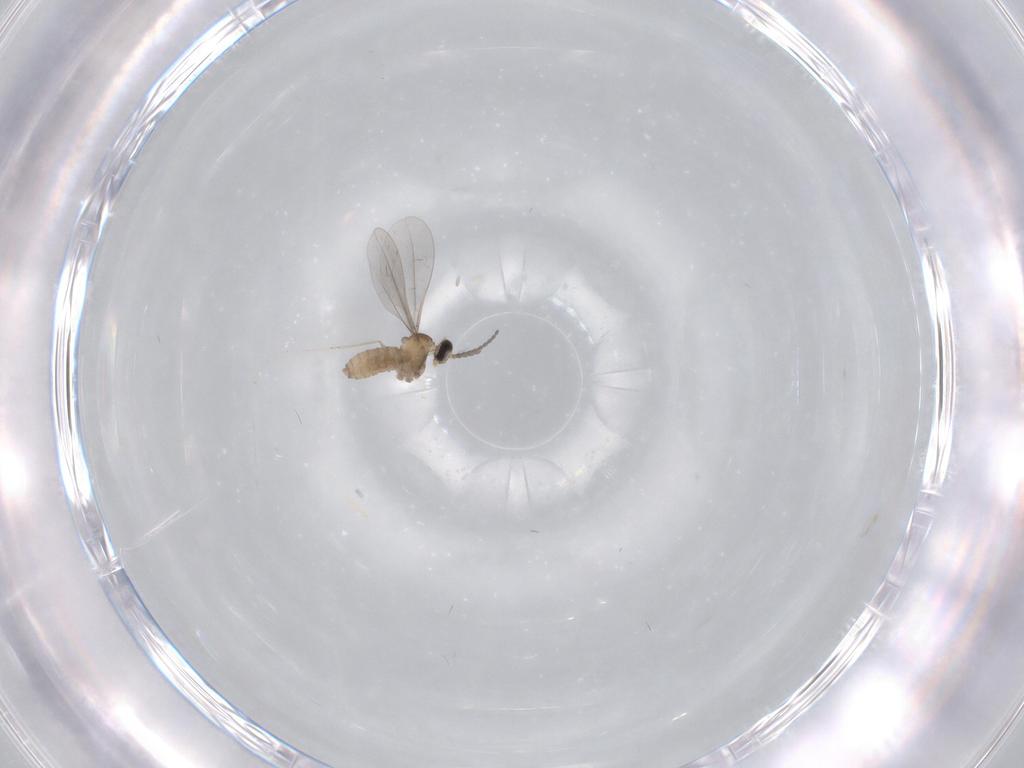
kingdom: Animalia
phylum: Arthropoda
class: Insecta
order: Diptera
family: Cecidomyiidae
